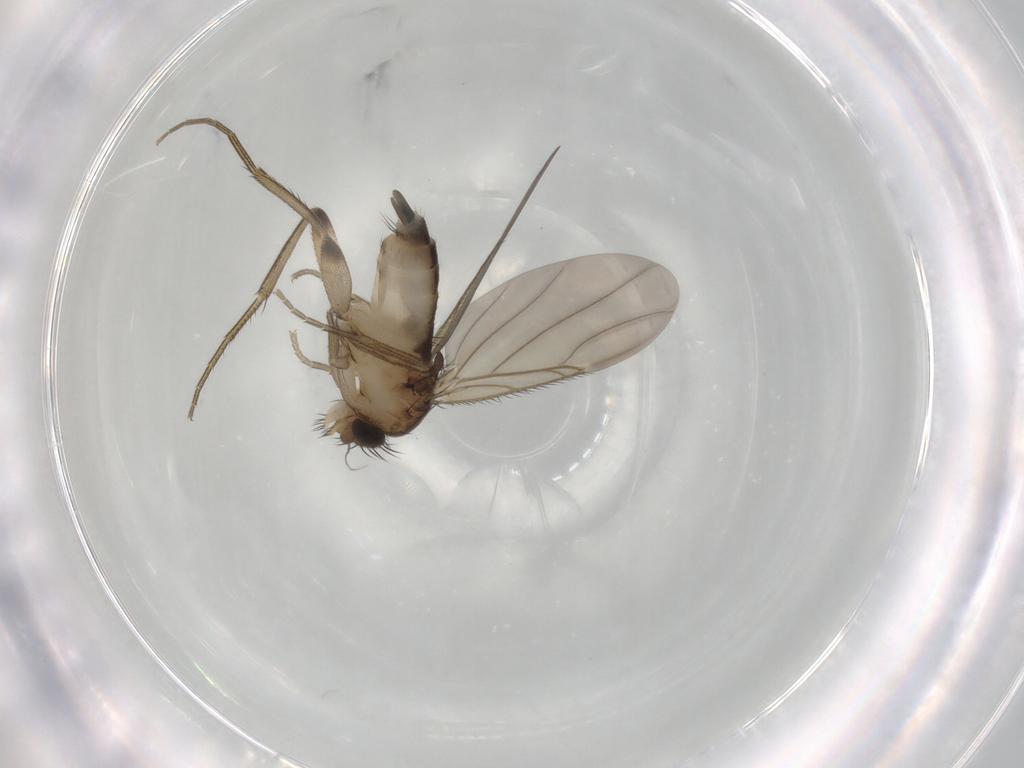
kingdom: Animalia
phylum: Arthropoda
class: Insecta
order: Diptera
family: Phoridae
